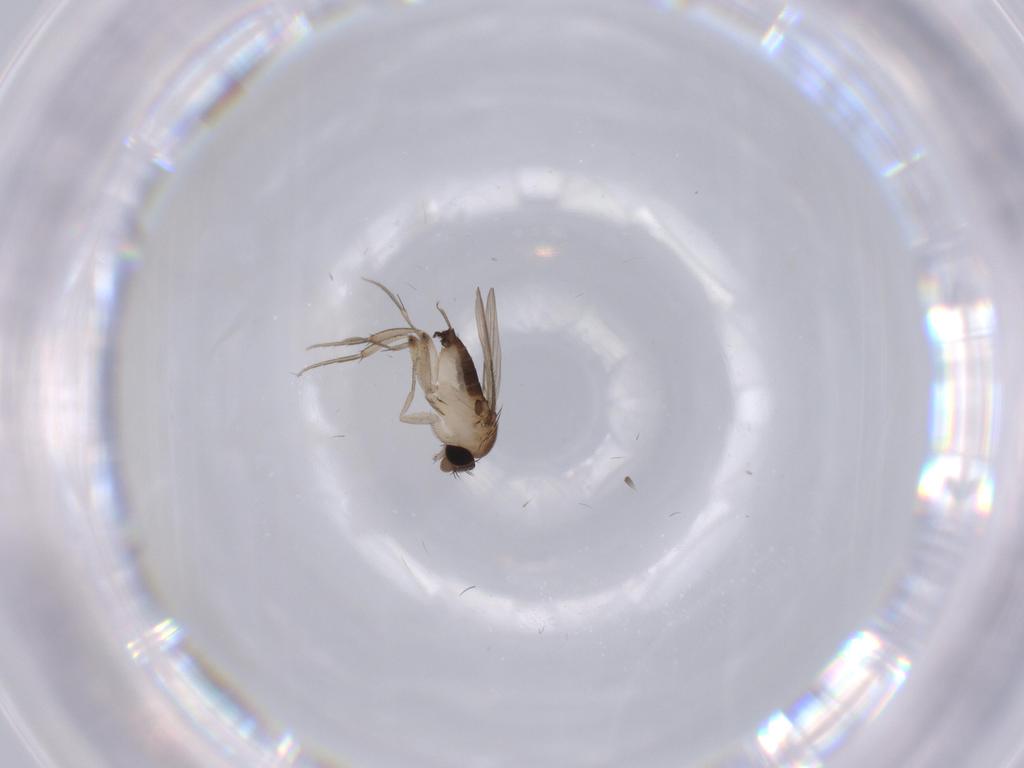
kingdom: Animalia
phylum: Arthropoda
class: Insecta
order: Diptera
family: Phoridae
